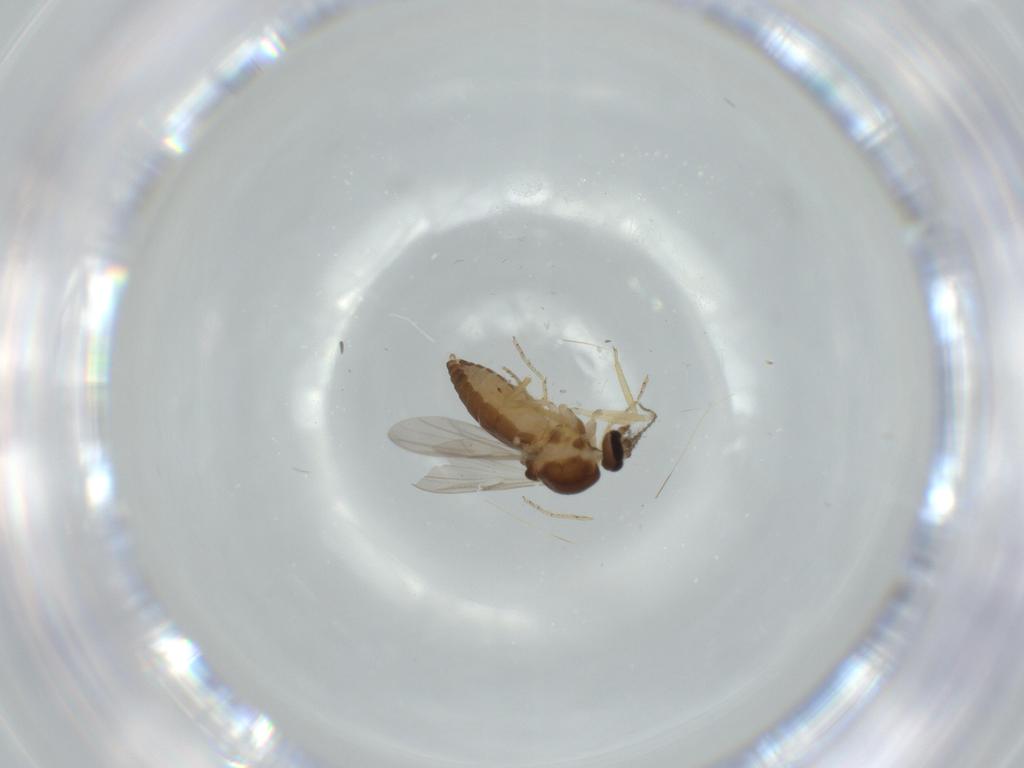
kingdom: Animalia
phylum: Arthropoda
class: Insecta
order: Diptera
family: Ceratopogonidae
